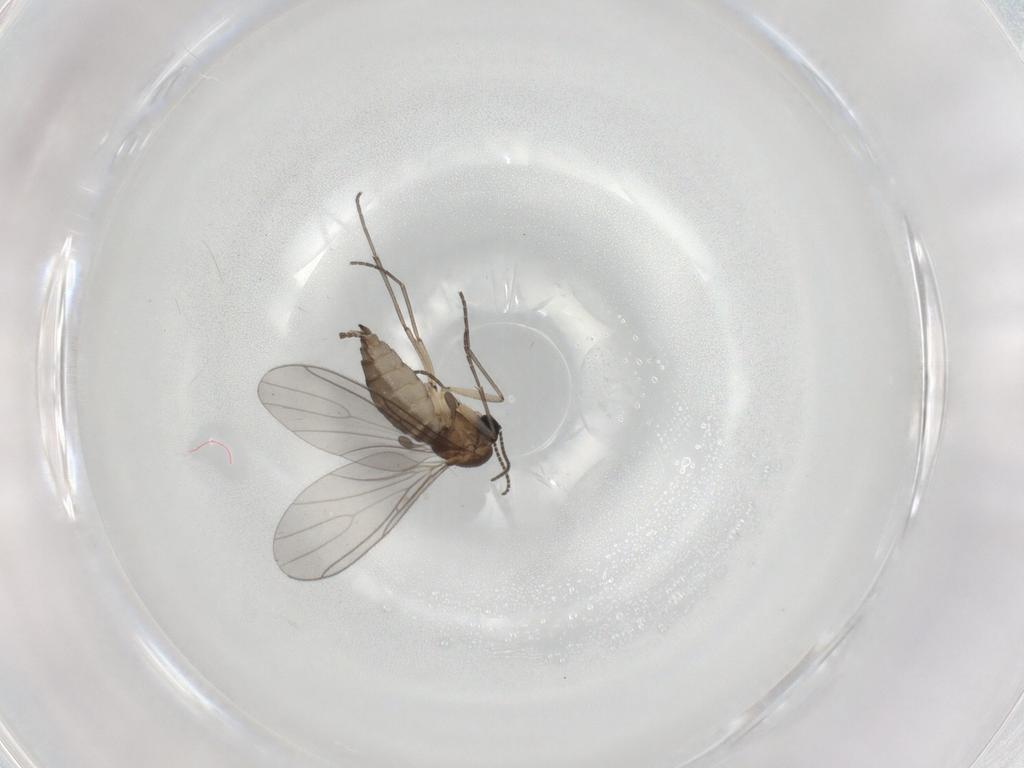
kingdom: Animalia
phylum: Arthropoda
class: Insecta
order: Diptera
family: Sciaridae
